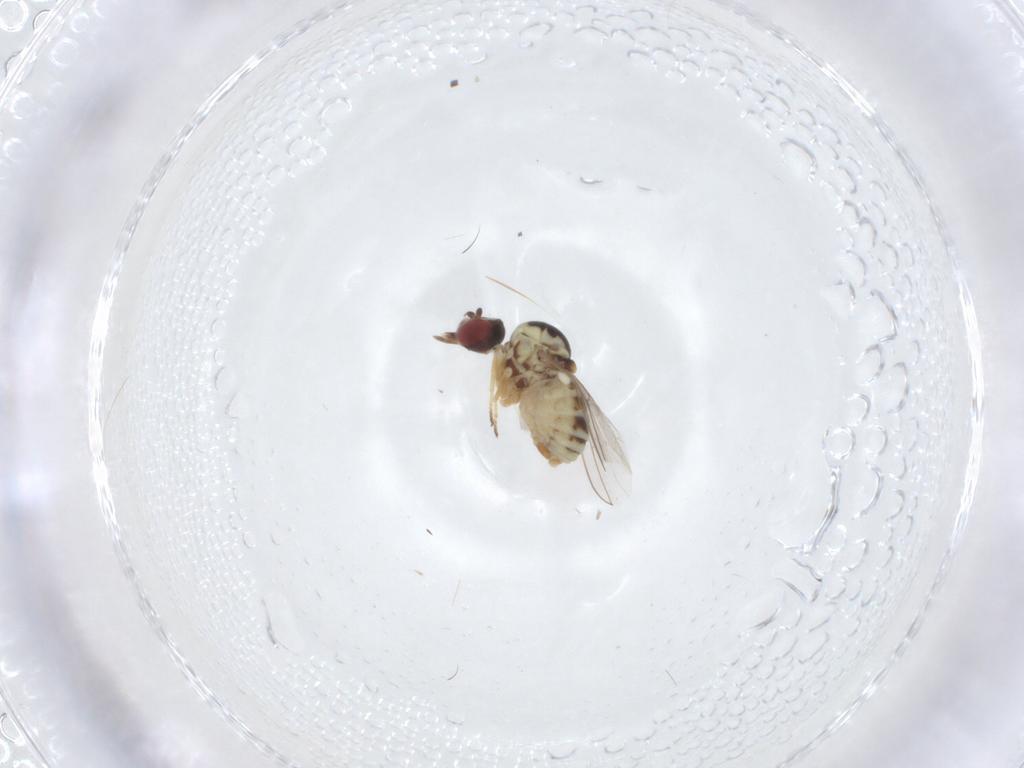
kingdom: Animalia
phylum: Arthropoda
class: Insecta
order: Diptera
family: Bombyliidae
